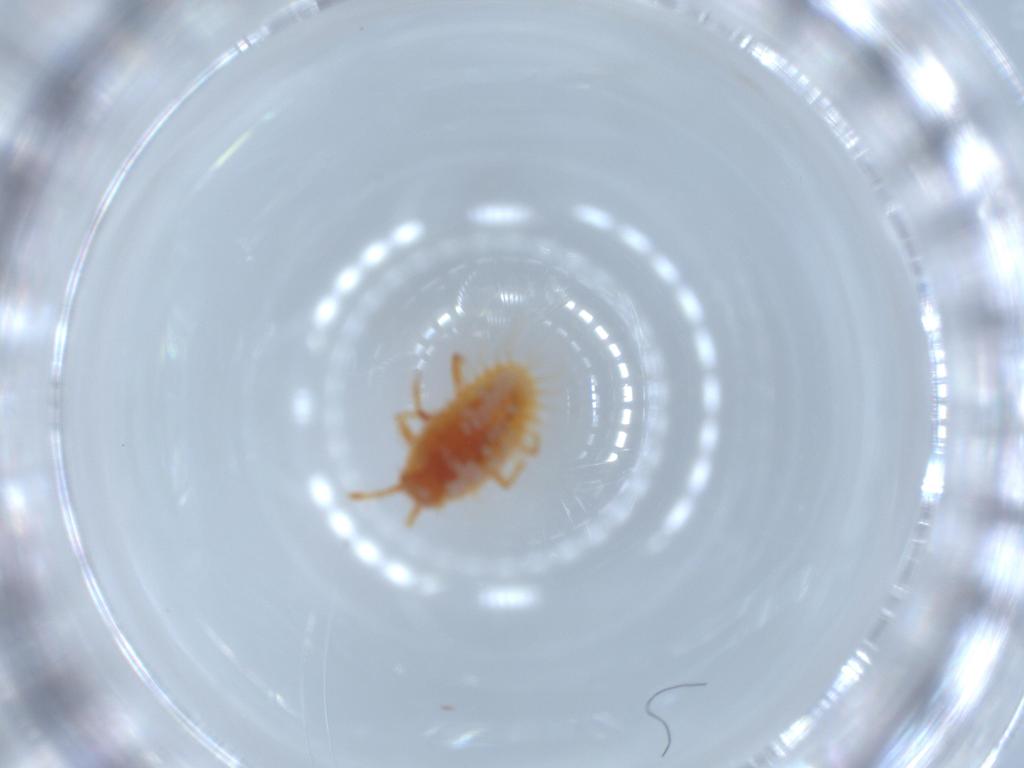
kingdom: Animalia
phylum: Arthropoda
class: Insecta
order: Hemiptera
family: Coccoidea_incertae_sedis
